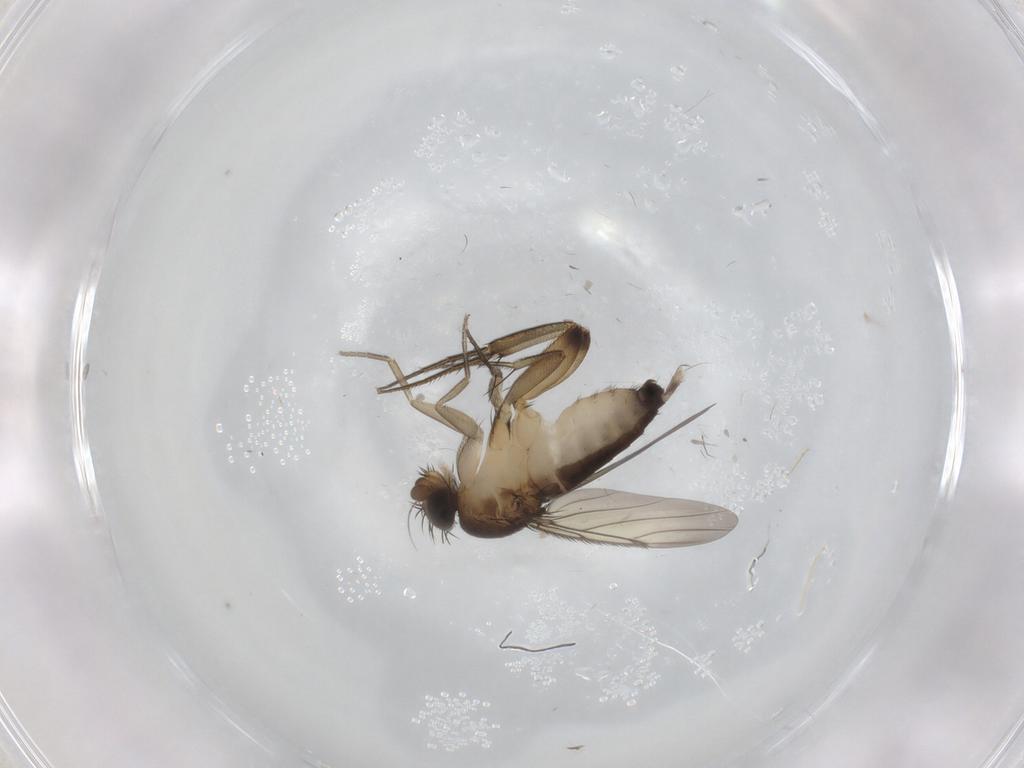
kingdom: Animalia
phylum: Arthropoda
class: Insecta
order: Diptera
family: Phoridae
